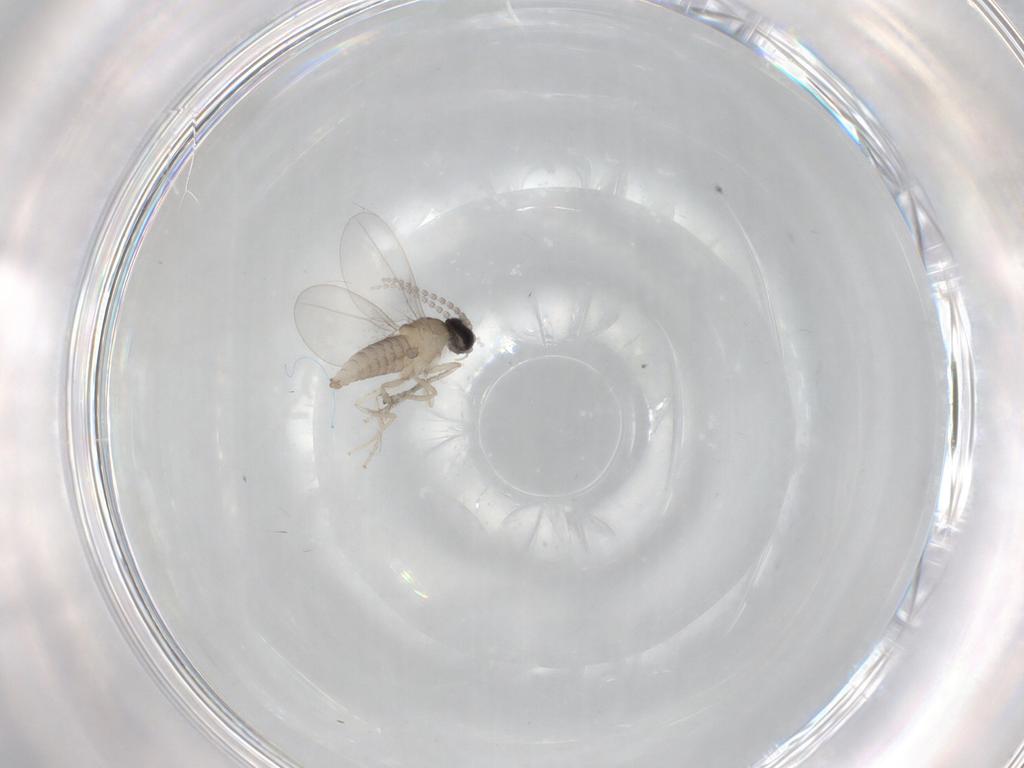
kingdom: Animalia
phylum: Arthropoda
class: Insecta
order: Diptera
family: Cecidomyiidae
